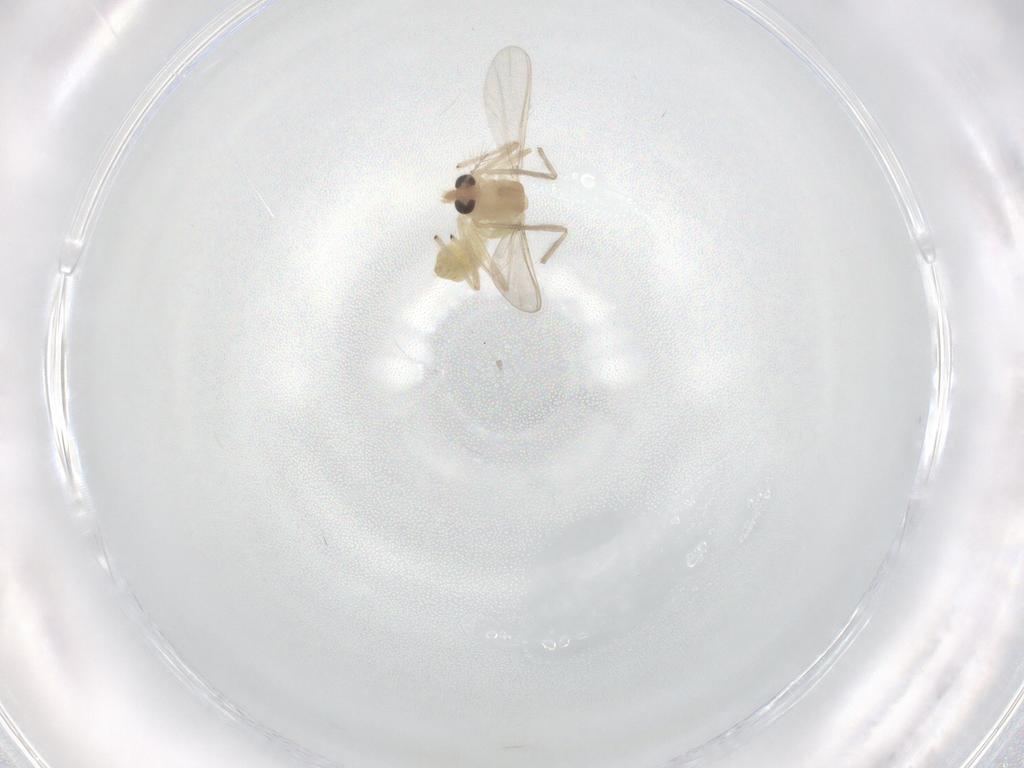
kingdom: Animalia
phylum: Arthropoda
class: Insecta
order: Diptera
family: Chironomidae
